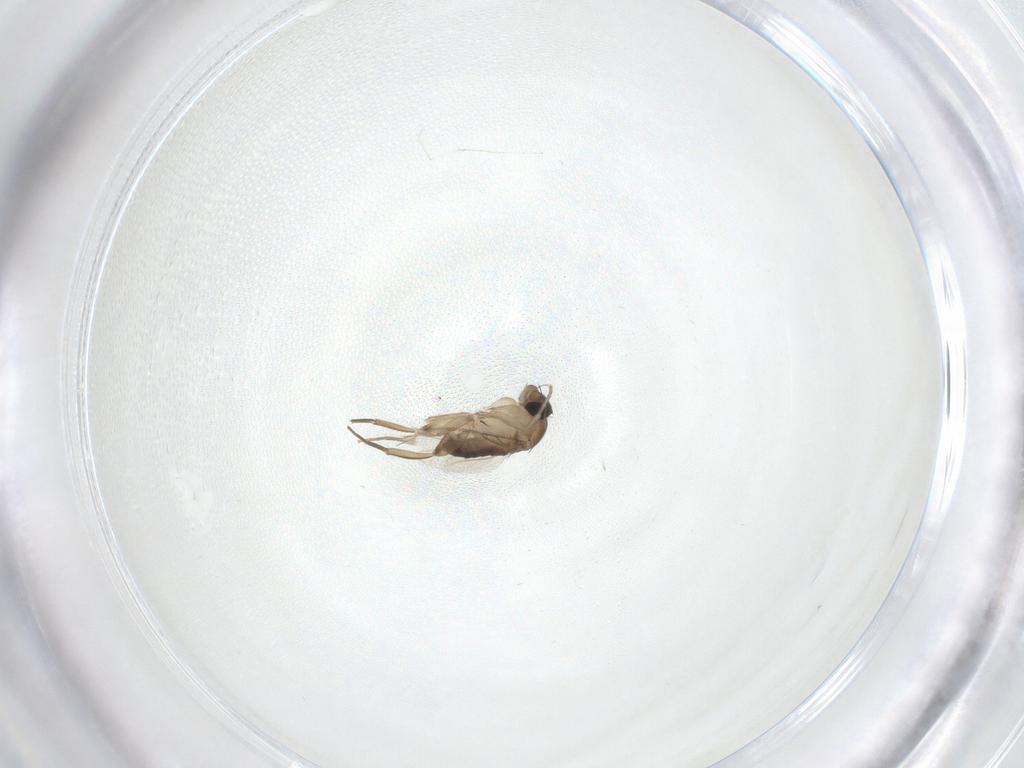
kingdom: Animalia
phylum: Arthropoda
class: Insecta
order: Diptera
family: Phoridae
